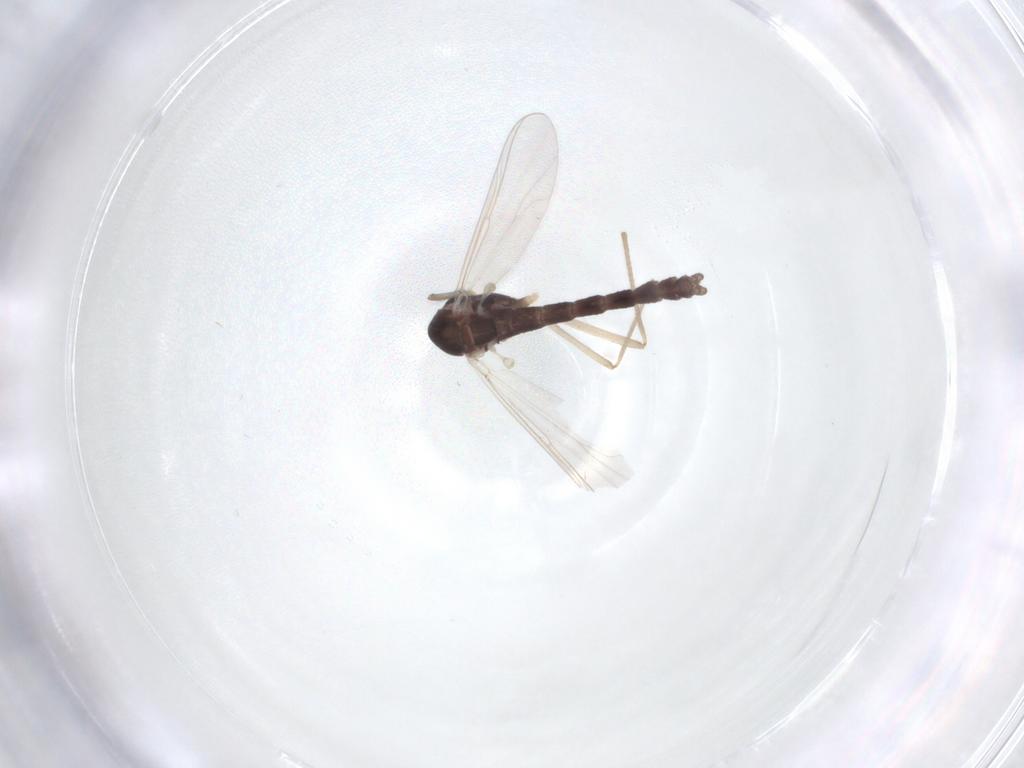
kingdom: Animalia
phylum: Arthropoda
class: Insecta
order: Diptera
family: Chironomidae
